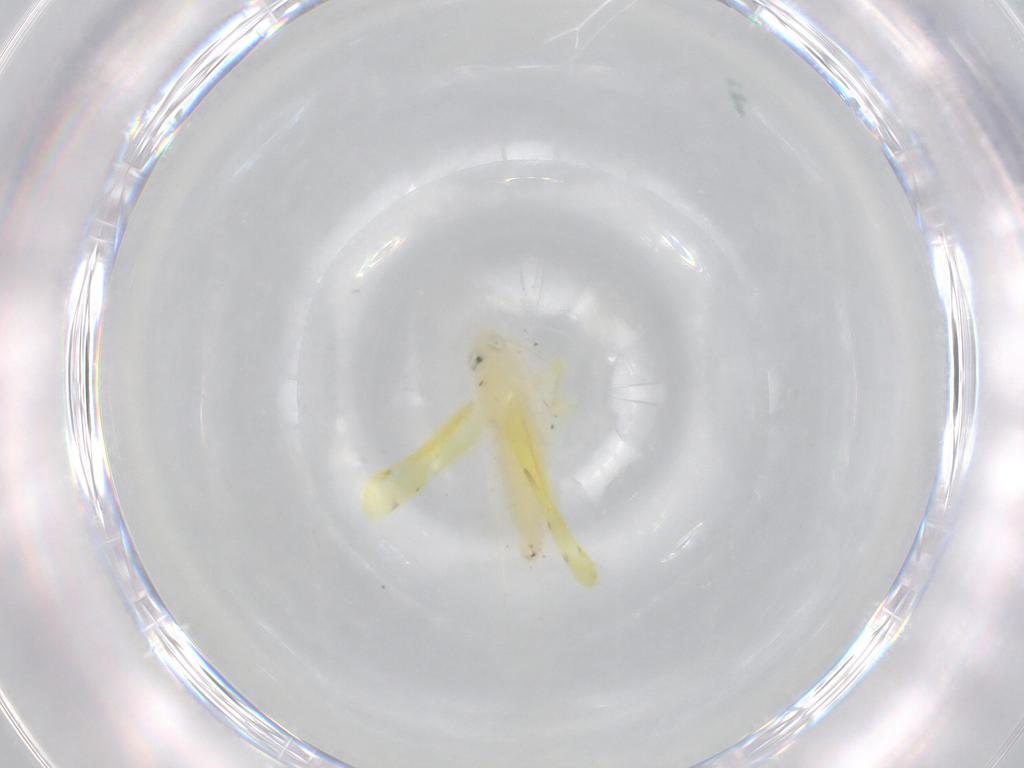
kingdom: Animalia
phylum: Arthropoda
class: Insecta
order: Hemiptera
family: Cicadellidae
